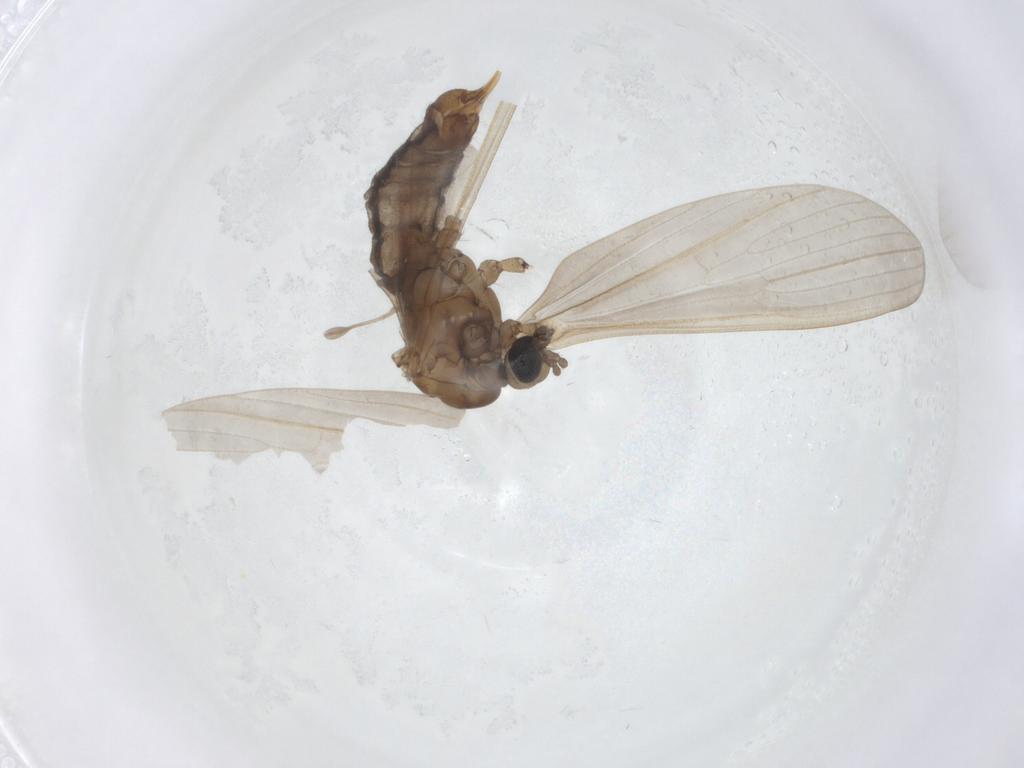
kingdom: Animalia
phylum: Arthropoda
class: Insecta
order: Diptera
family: Limoniidae
